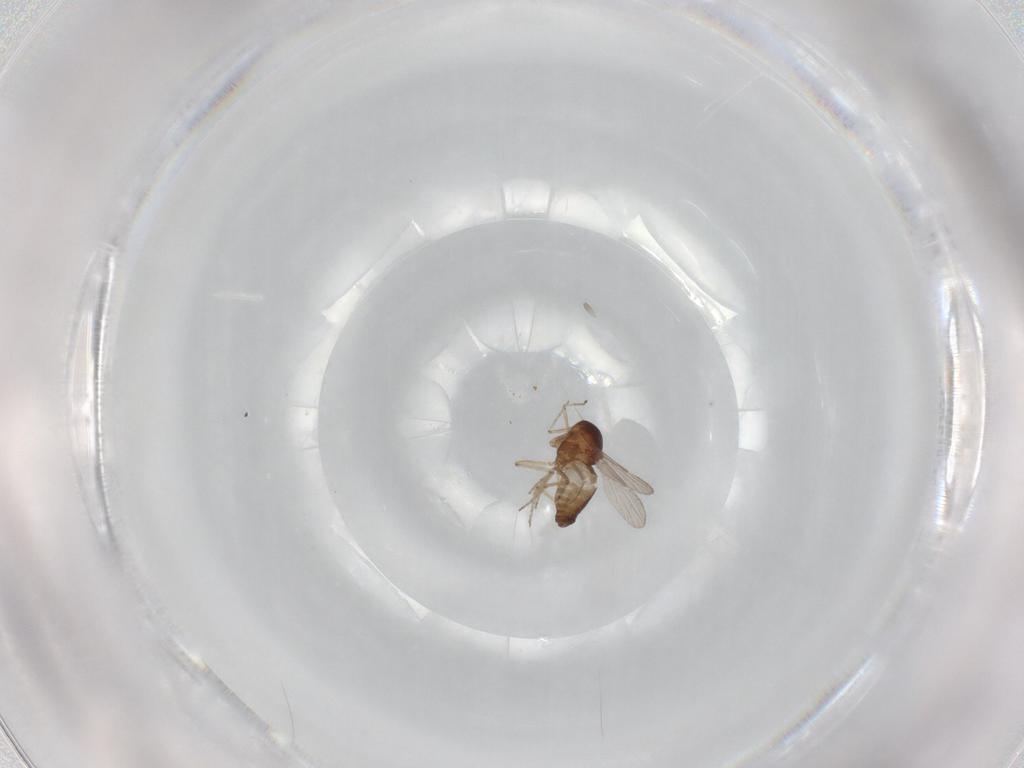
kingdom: Animalia
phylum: Arthropoda
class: Insecta
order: Diptera
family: Ceratopogonidae
